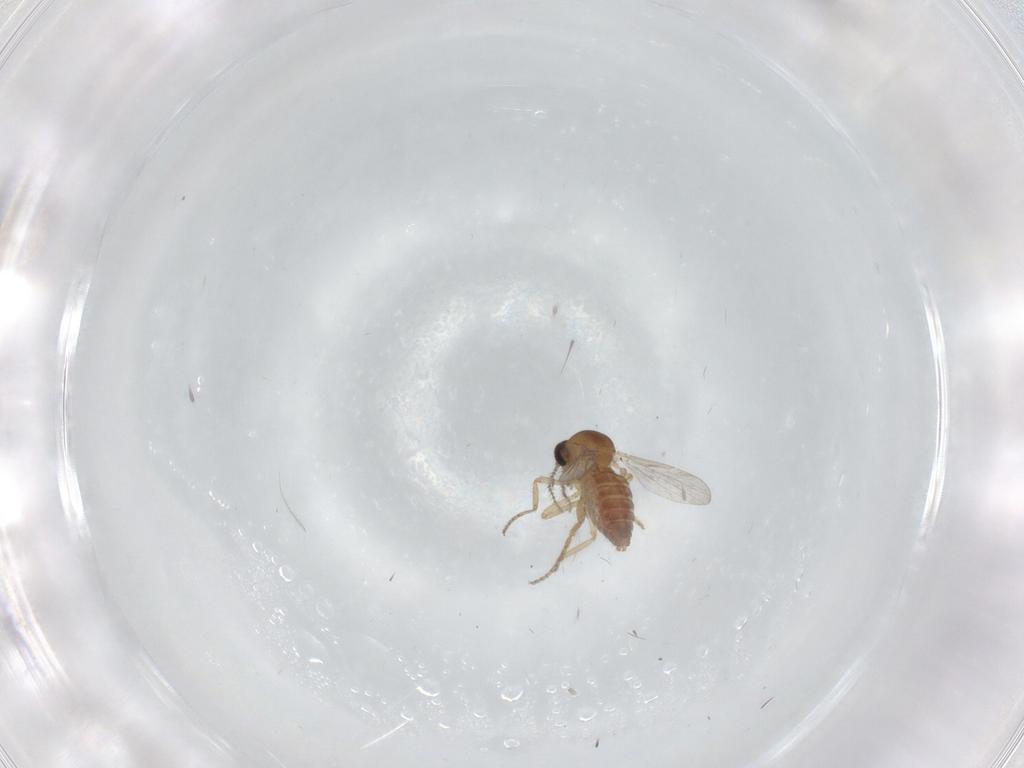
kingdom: Animalia
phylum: Arthropoda
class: Insecta
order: Diptera
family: Ceratopogonidae
